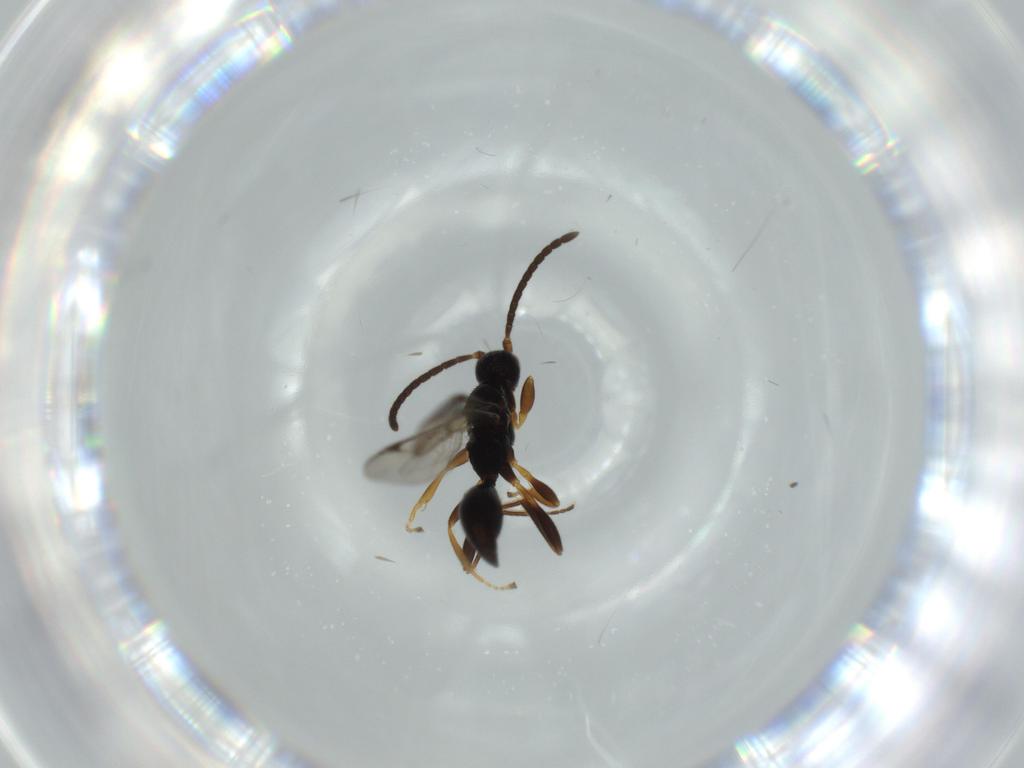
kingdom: Animalia
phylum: Arthropoda
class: Insecta
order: Hymenoptera
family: Proctotrupidae
